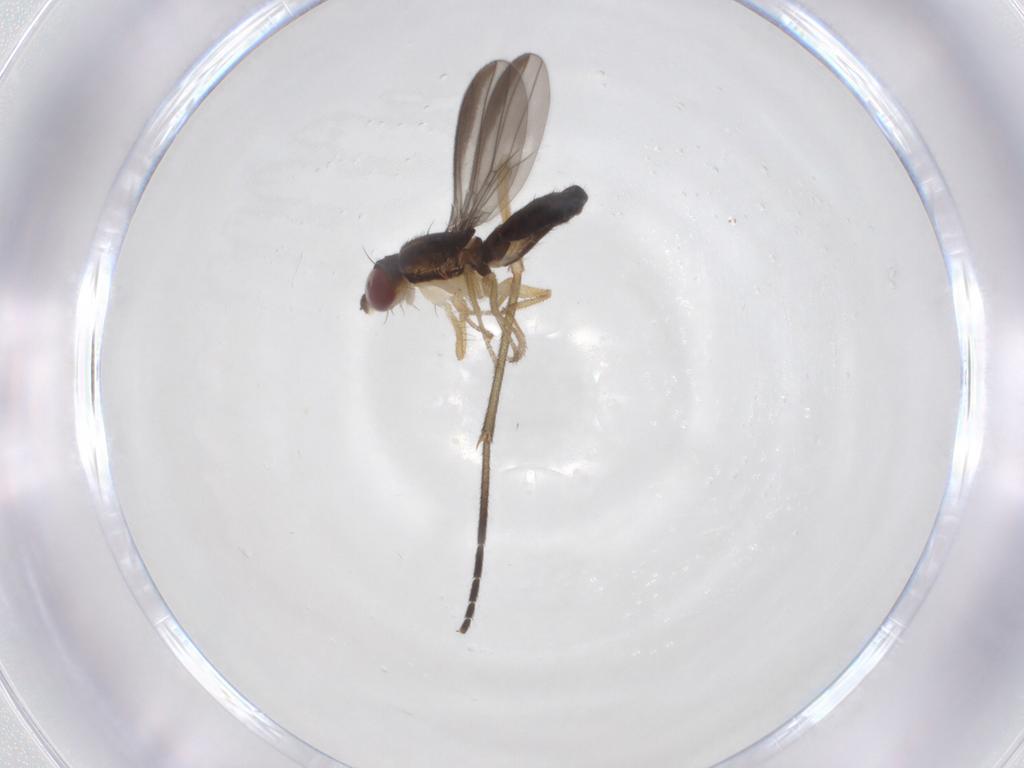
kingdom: Animalia
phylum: Arthropoda
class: Insecta
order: Diptera
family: Anthomyzidae
